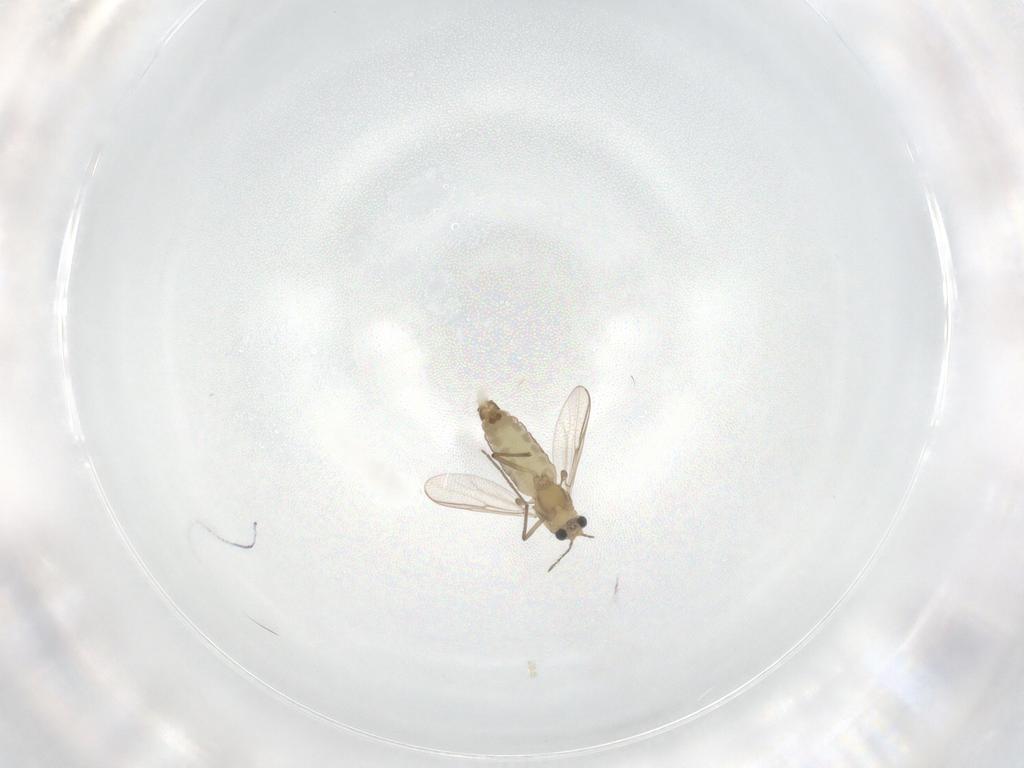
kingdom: Animalia
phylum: Arthropoda
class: Insecta
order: Diptera
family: Chironomidae
